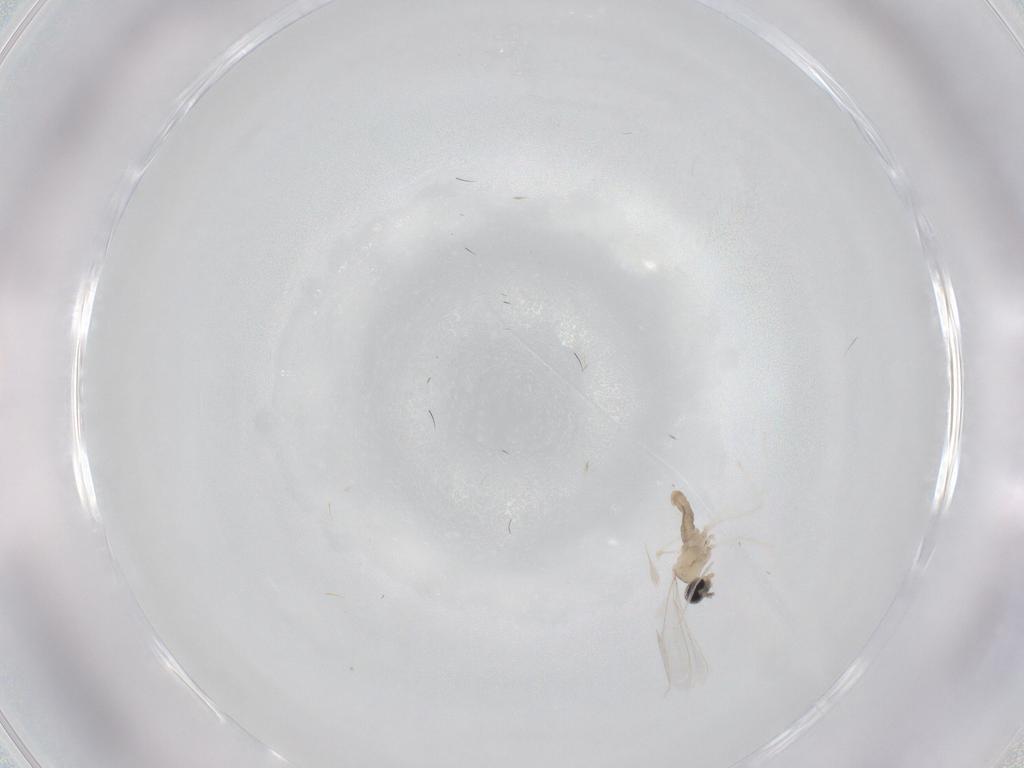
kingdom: Animalia
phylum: Arthropoda
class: Insecta
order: Diptera
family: Cecidomyiidae
